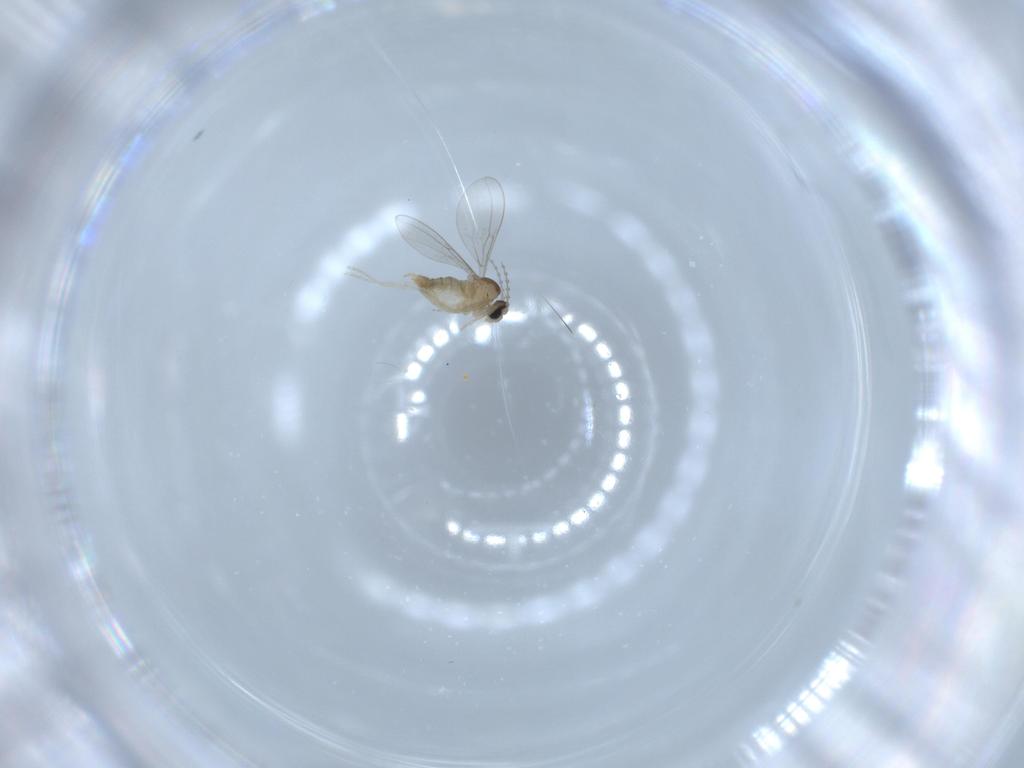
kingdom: Animalia
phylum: Arthropoda
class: Insecta
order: Diptera
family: Cecidomyiidae
